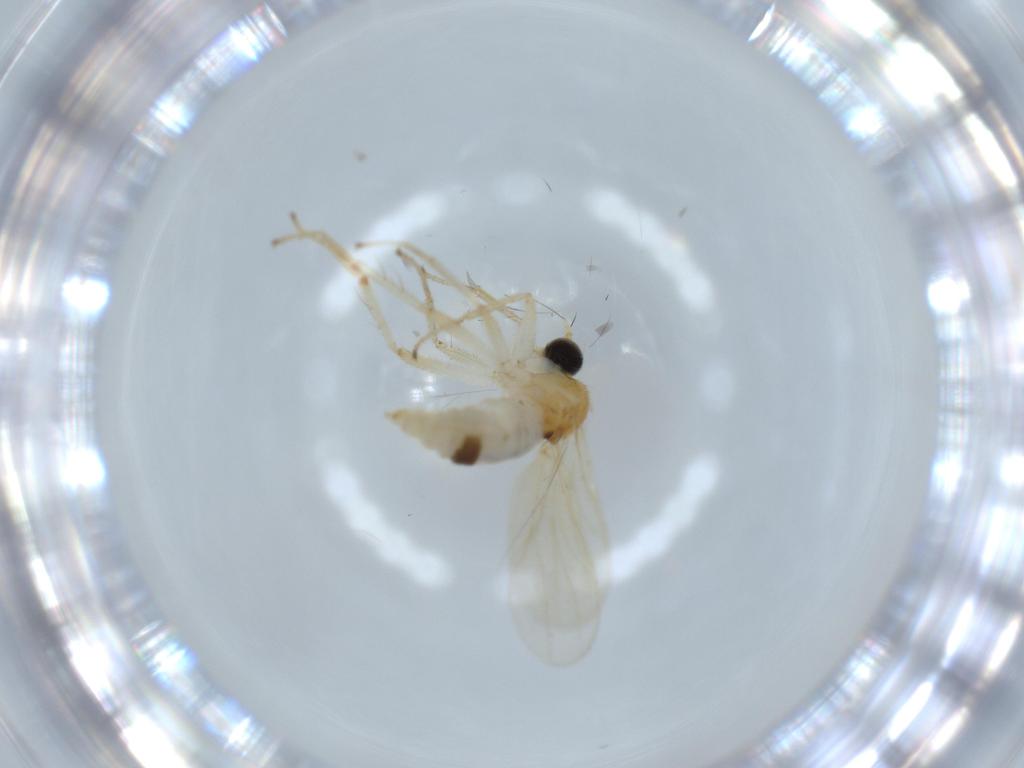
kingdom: Animalia
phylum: Arthropoda
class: Insecta
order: Diptera
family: Hybotidae
